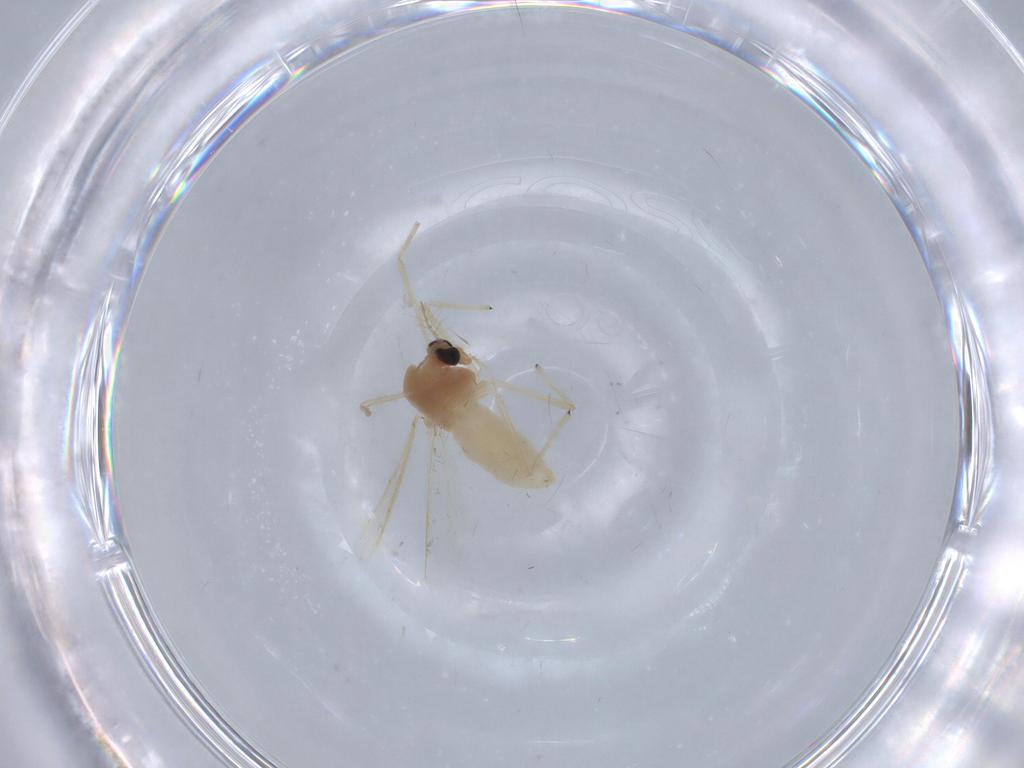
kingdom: Animalia
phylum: Arthropoda
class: Insecta
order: Diptera
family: Chironomidae
